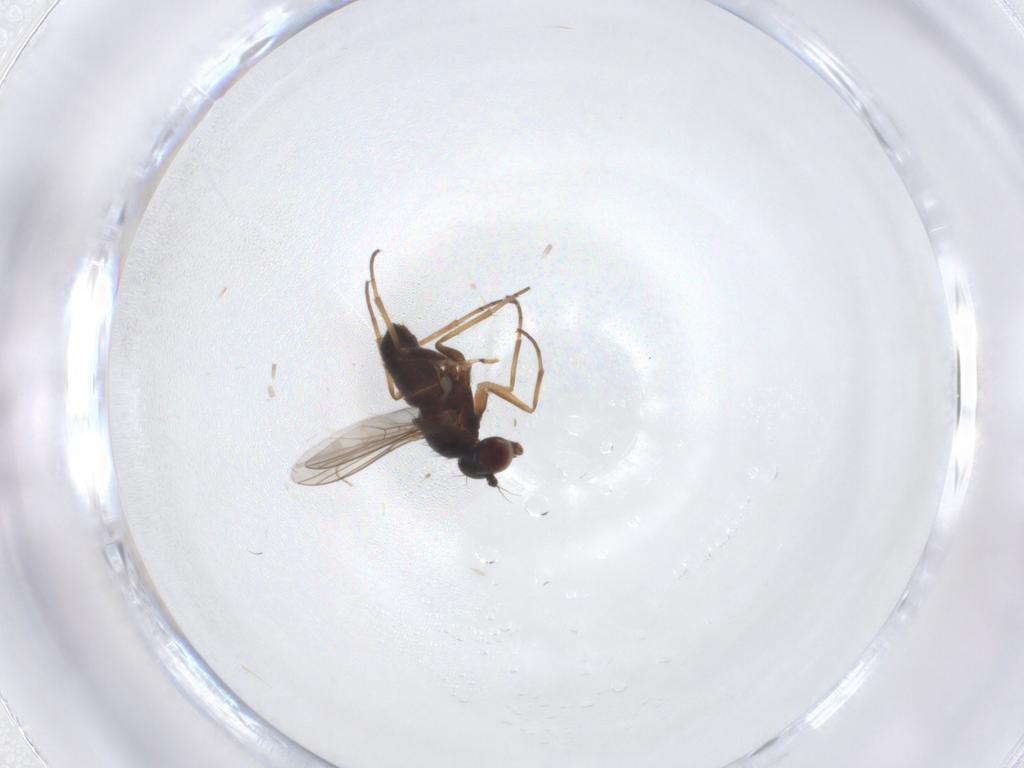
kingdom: Animalia
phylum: Arthropoda
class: Insecta
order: Diptera
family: Dolichopodidae
